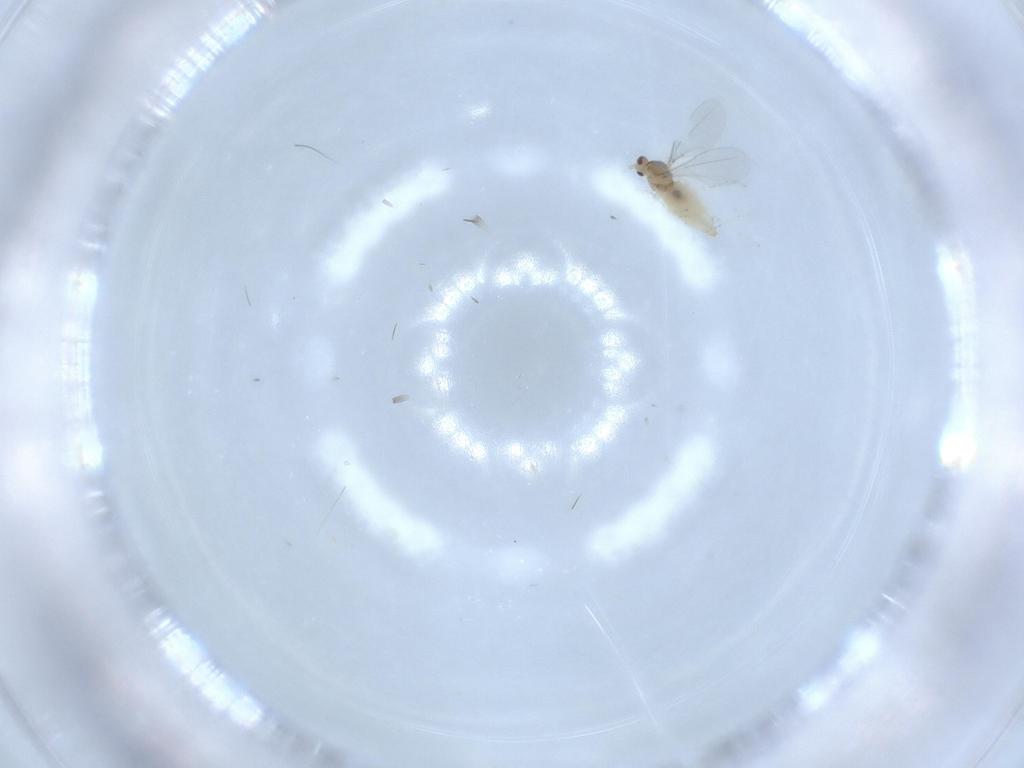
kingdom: Animalia
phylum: Arthropoda
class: Insecta
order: Diptera
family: Cecidomyiidae
